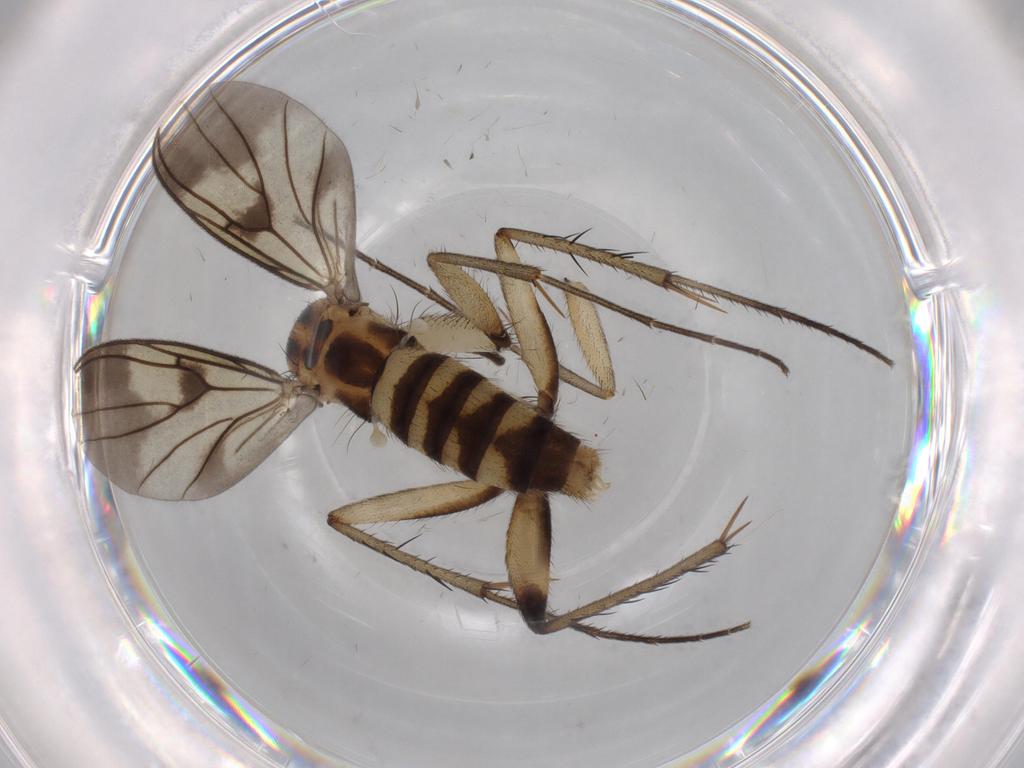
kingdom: Animalia
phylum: Arthropoda
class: Insecta
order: Diptera
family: Mycetophilidae
